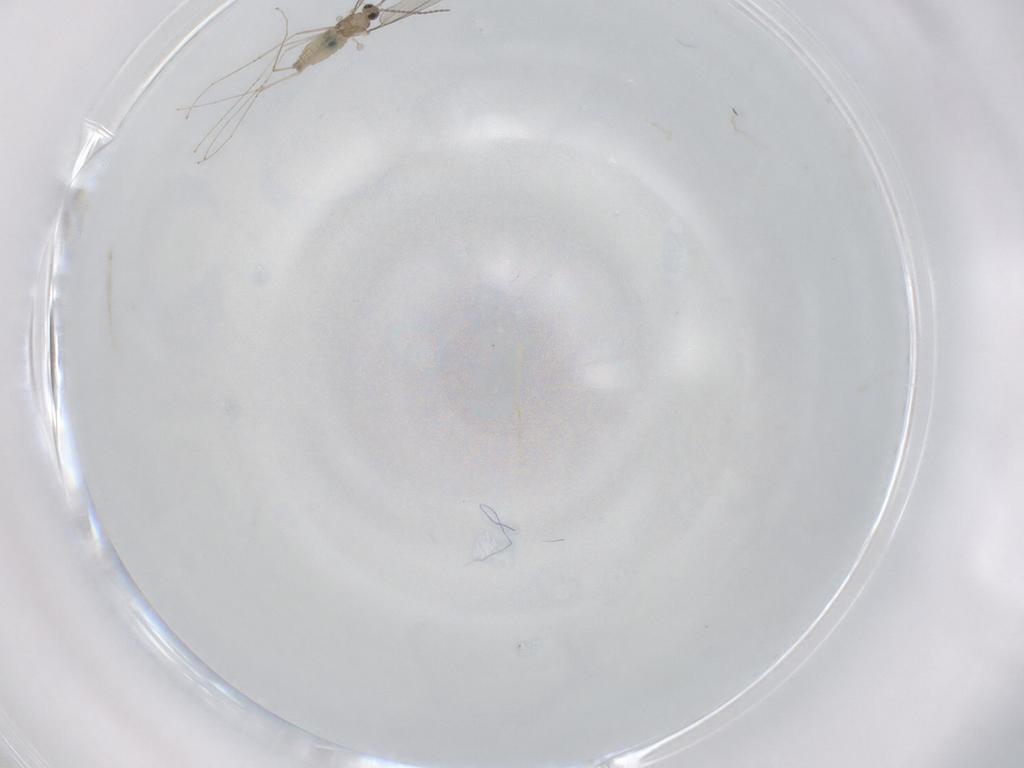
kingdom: Animalia
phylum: Arthropoda
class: Insecta
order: Diptera
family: Cecidomyiidae
